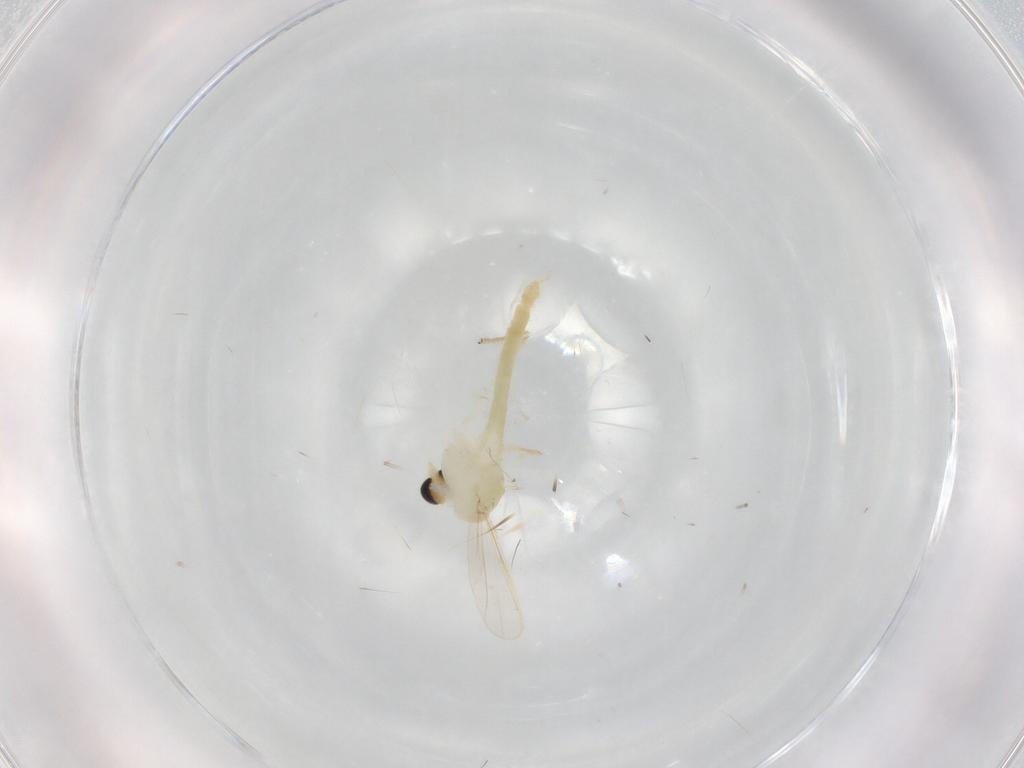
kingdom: Animalia
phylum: Arthropoda
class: Insecta
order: Diptera
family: Chironomidae
